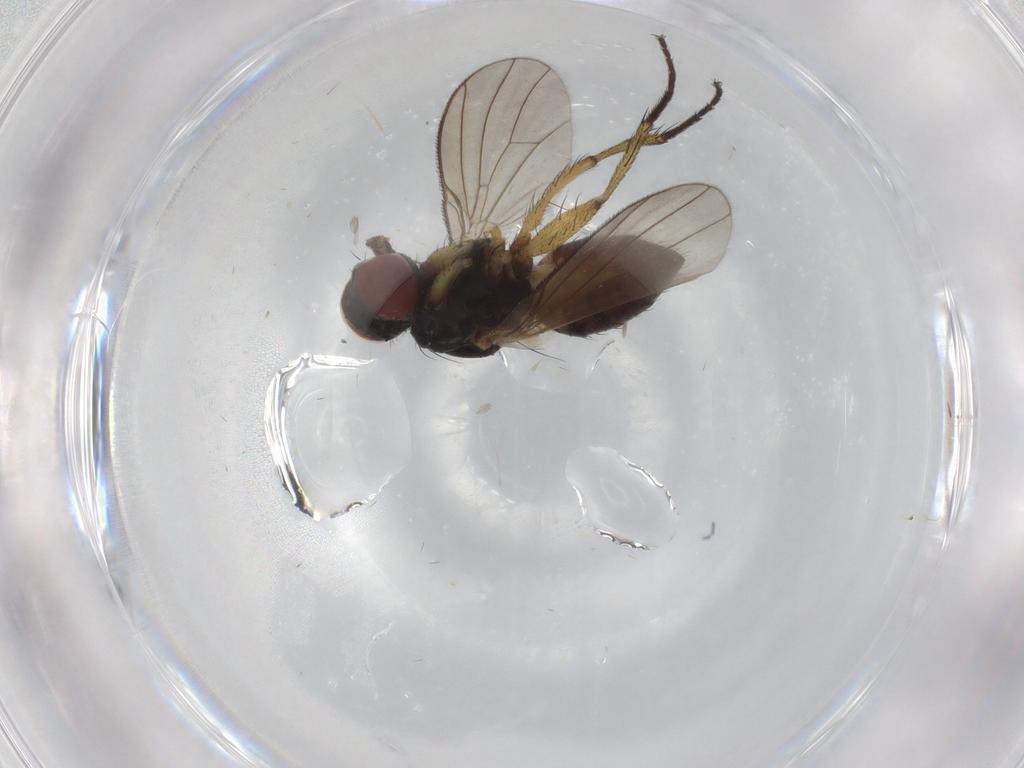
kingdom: Animalia
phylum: Arthropoda
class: Insecta
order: Diptera
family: Muscidae
